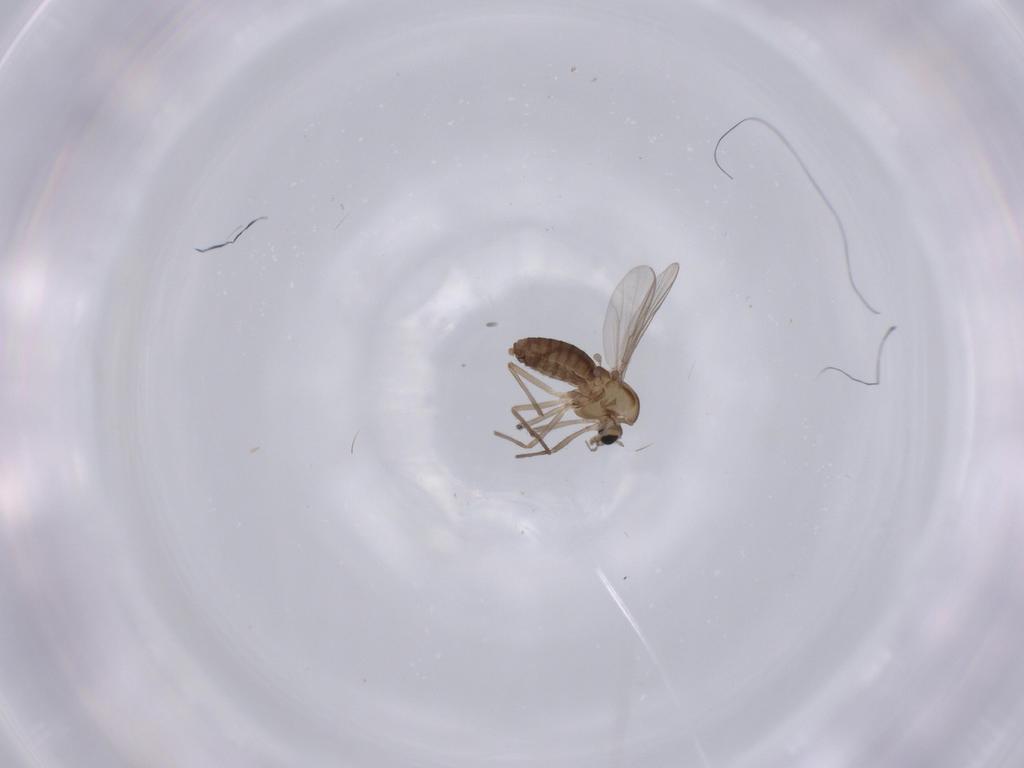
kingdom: Animalia
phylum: Arthropoda
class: Insecta
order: Diptera
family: Chironomidae
